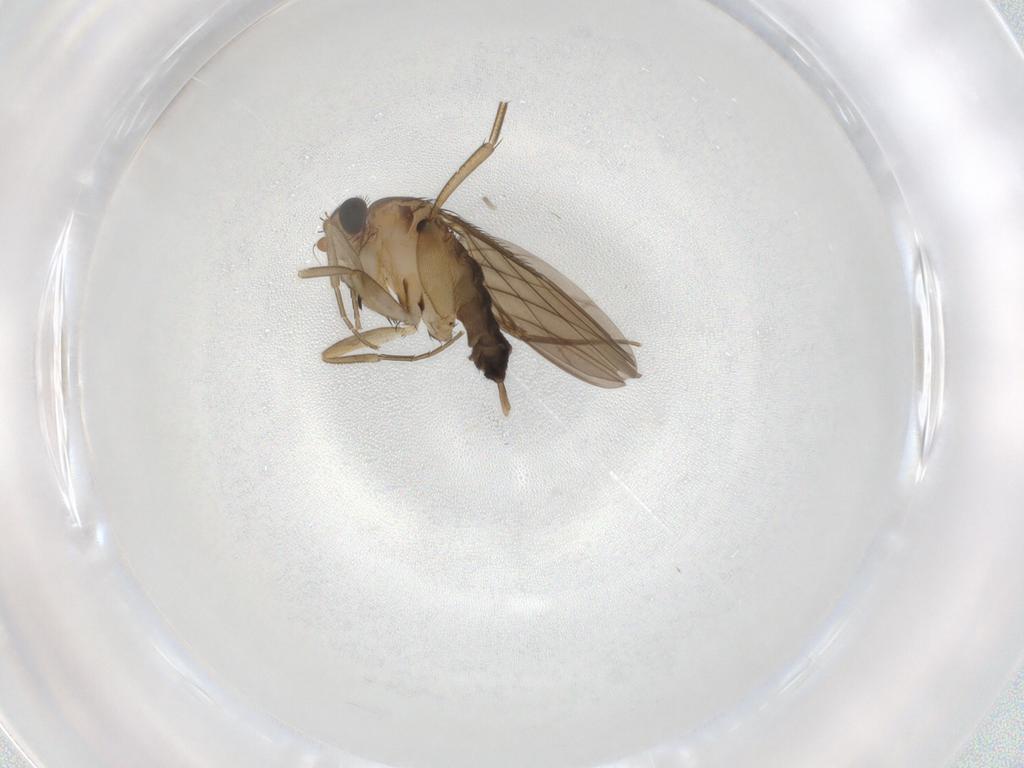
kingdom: Animalia
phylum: Arthropoda
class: Insecta
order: Diptera
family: Phoridae
